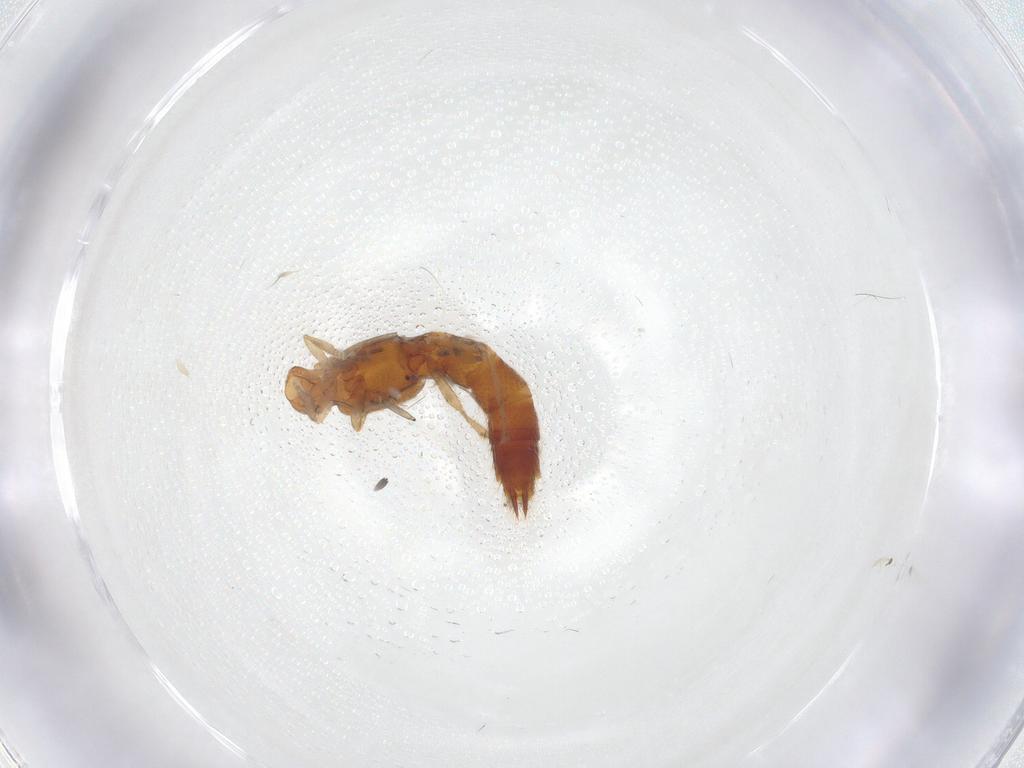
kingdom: Animalia
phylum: Arthropoda
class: Insecta
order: Coleoptera
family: Staphylinidae
